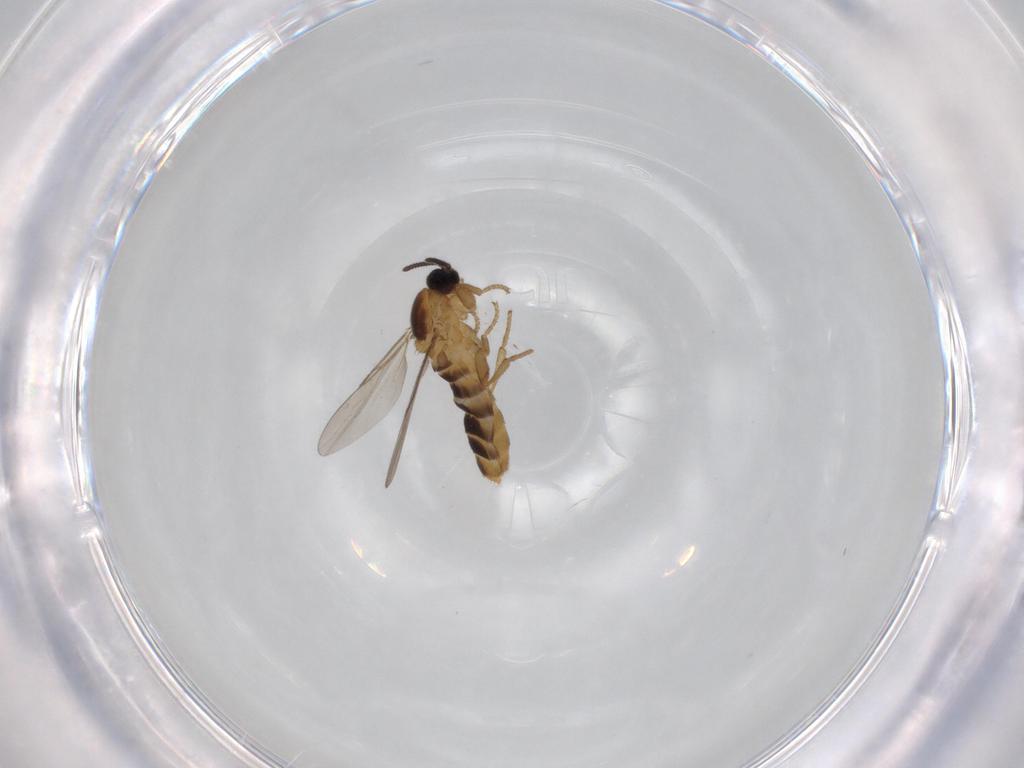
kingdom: Animalia
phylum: Arthropoda
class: Insecta
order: Diptera
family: Scatopsidae
